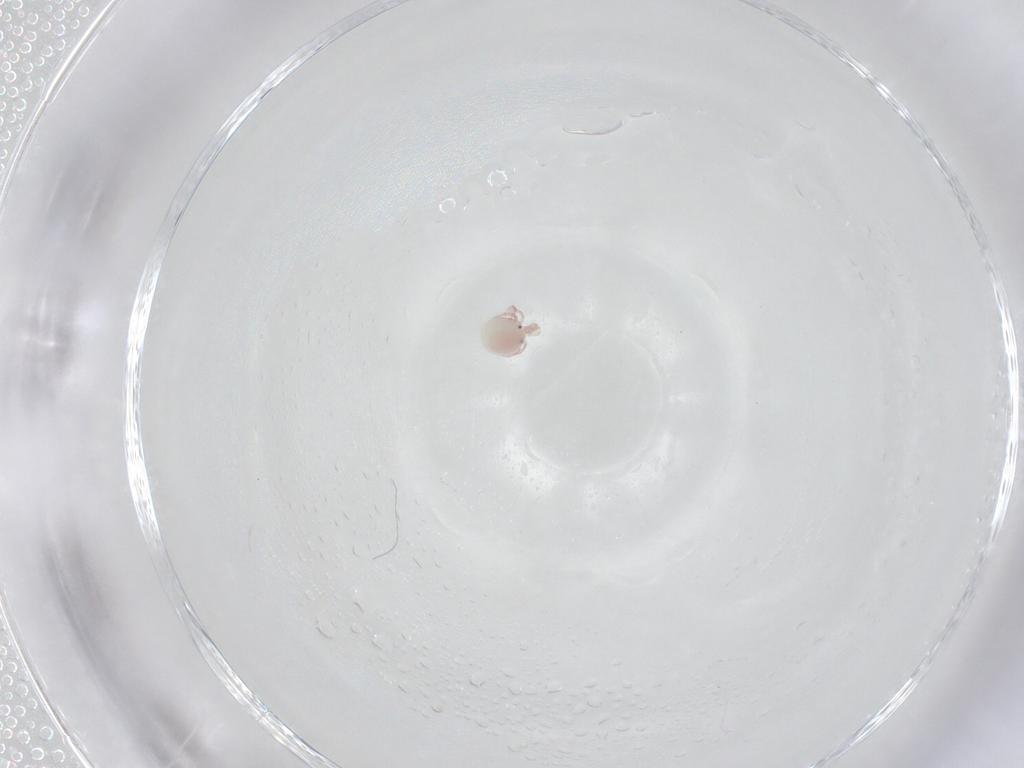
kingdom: Animalia
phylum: Arthropoda
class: Arachnida
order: Trombidiformes
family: Pionidae
